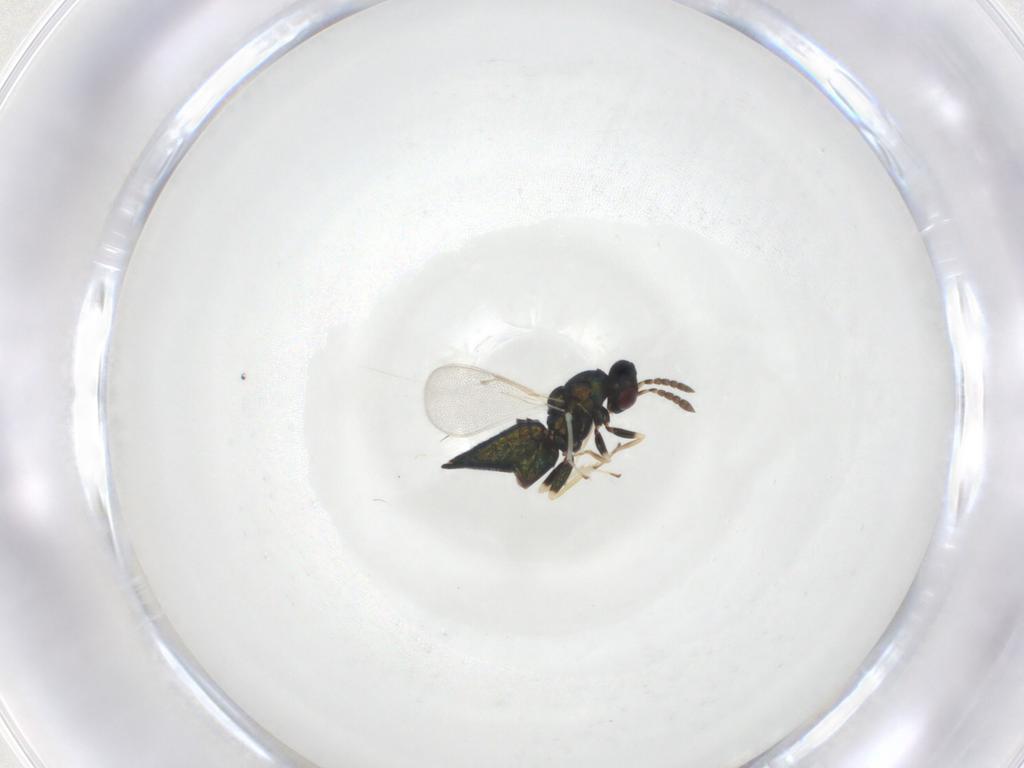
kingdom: Animalia
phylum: Arthropoda
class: Insecta
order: Hymenoptera
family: Eulophidae
